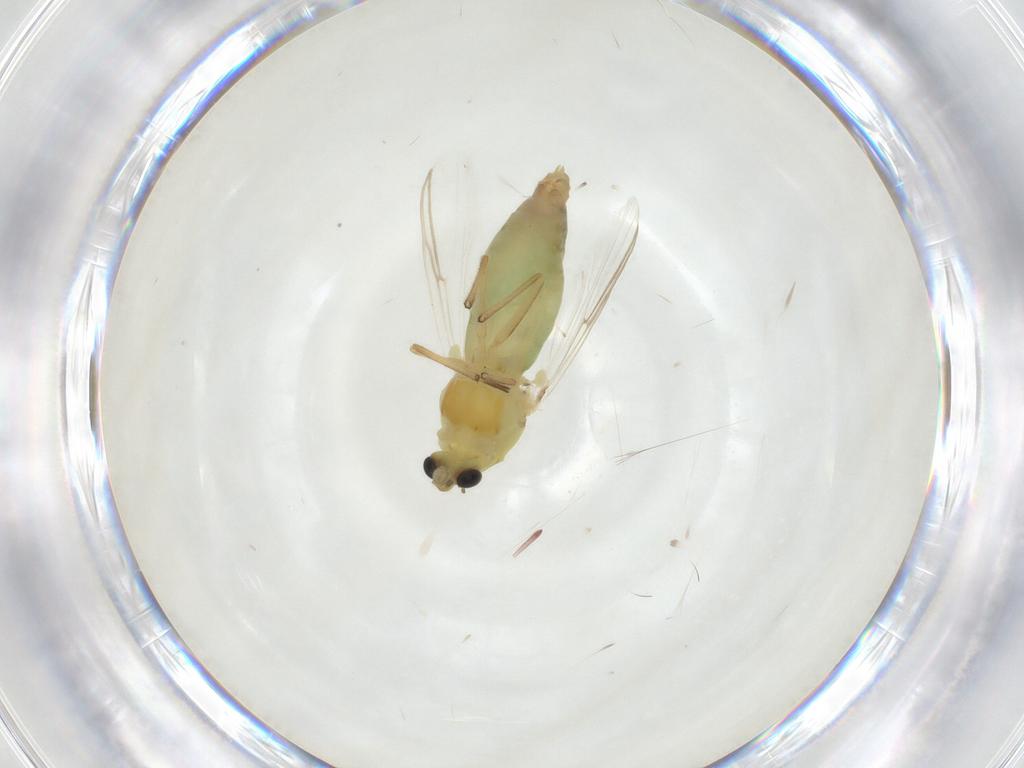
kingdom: Animalia
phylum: Arthropoda
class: Insecta
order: Diptera
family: Chironomidae
